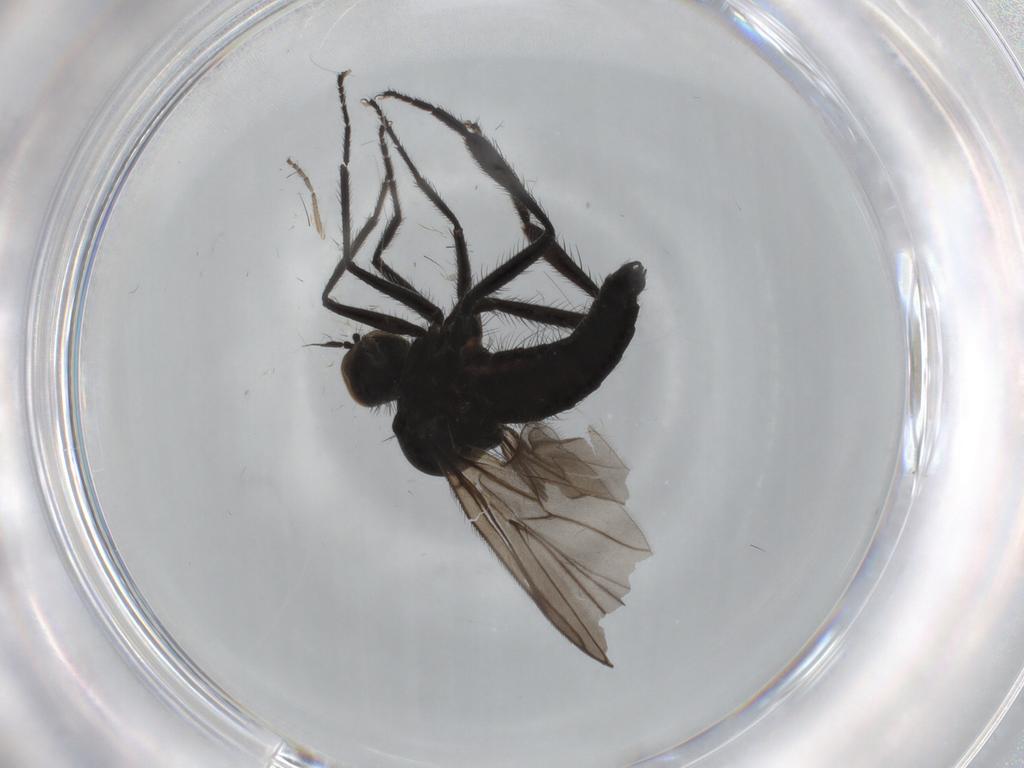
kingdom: Animalia
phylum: Arthropoda
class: Insecta
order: Diptera
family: Hybotidae
